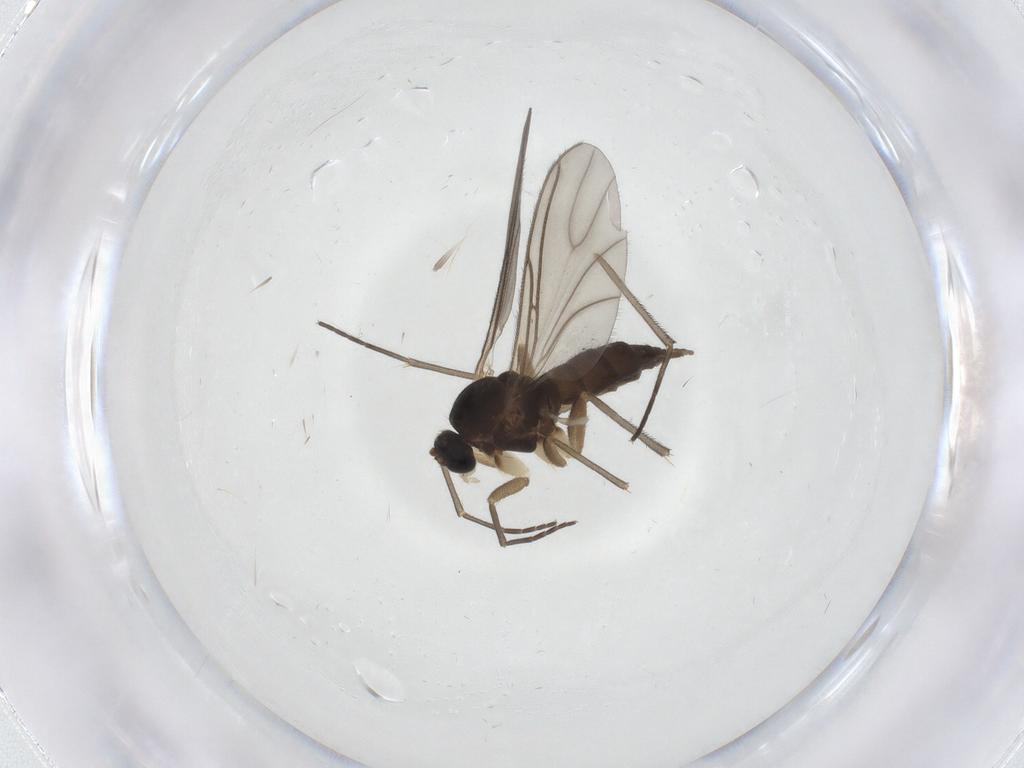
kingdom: Animalia
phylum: Arthropoda
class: Insecta
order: Diptera
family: Sciaridae
